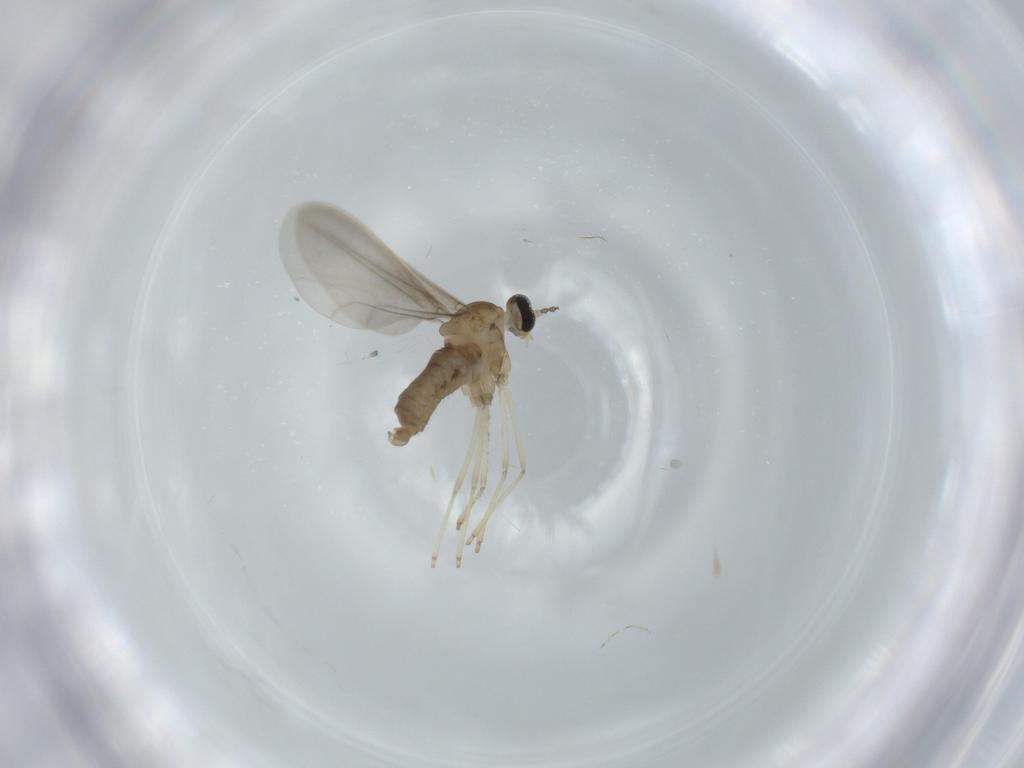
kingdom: Animalia
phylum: Arthropoda
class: Insecta
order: Diptera
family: Cecidomyiidae
